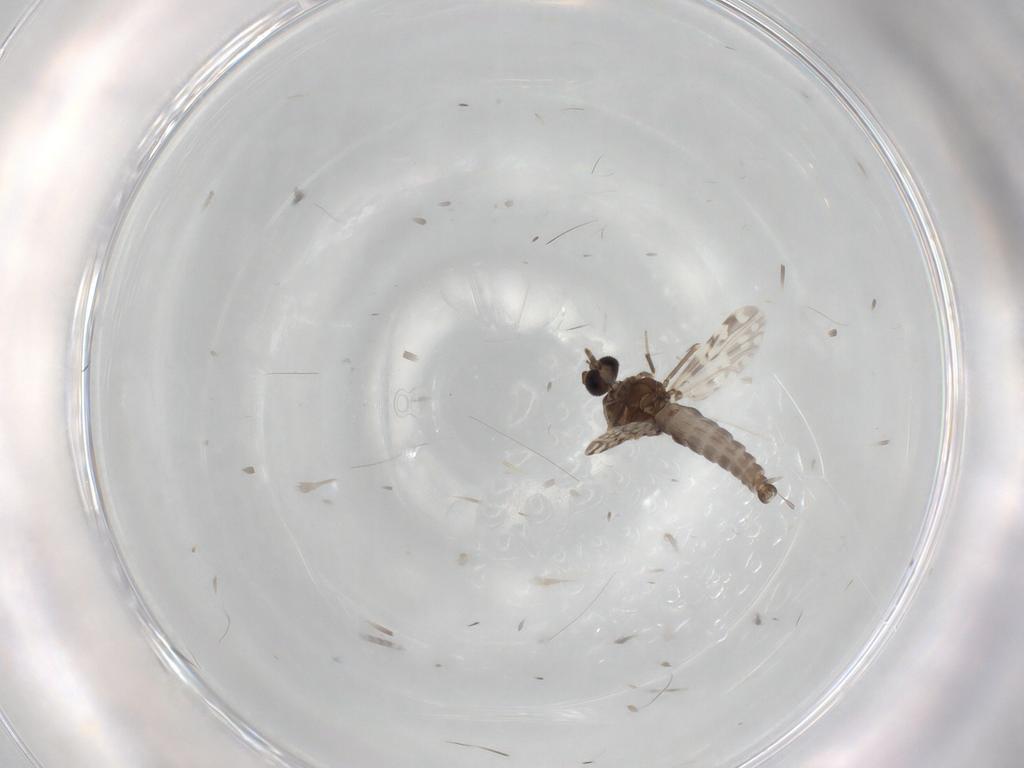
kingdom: Animalia
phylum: Arthropoda
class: Insecta
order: Diptera
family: Ceratopogonidae
